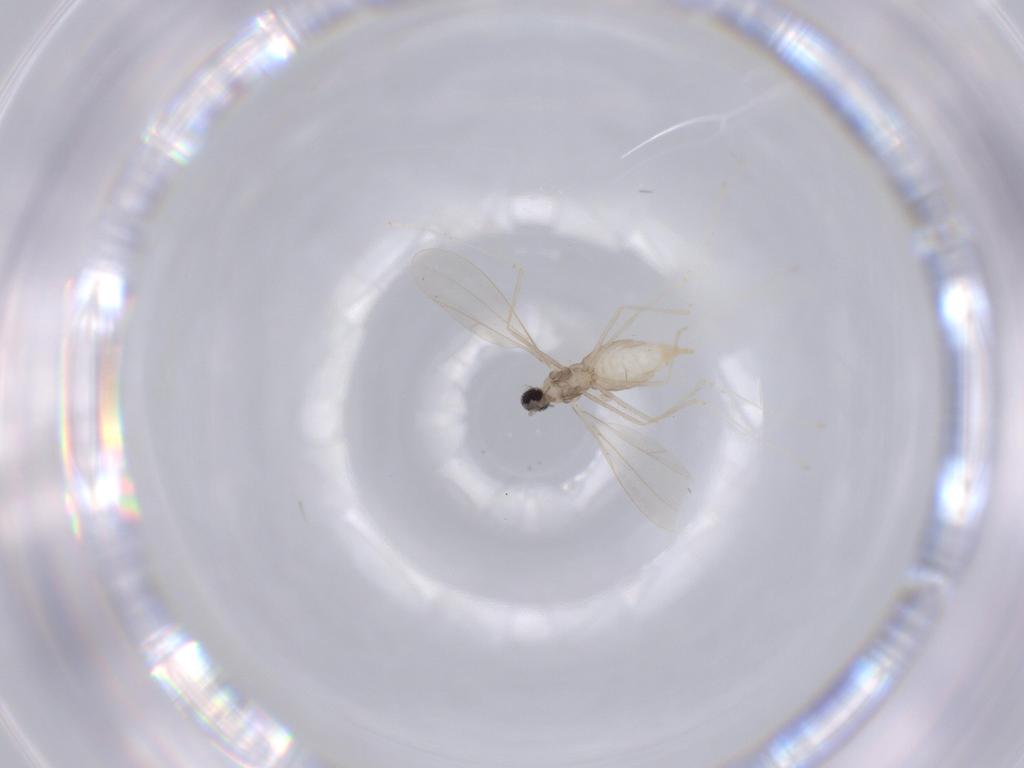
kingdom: Animalia
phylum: Arthropoda
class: Insecta
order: Diptera
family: Chironomidae
